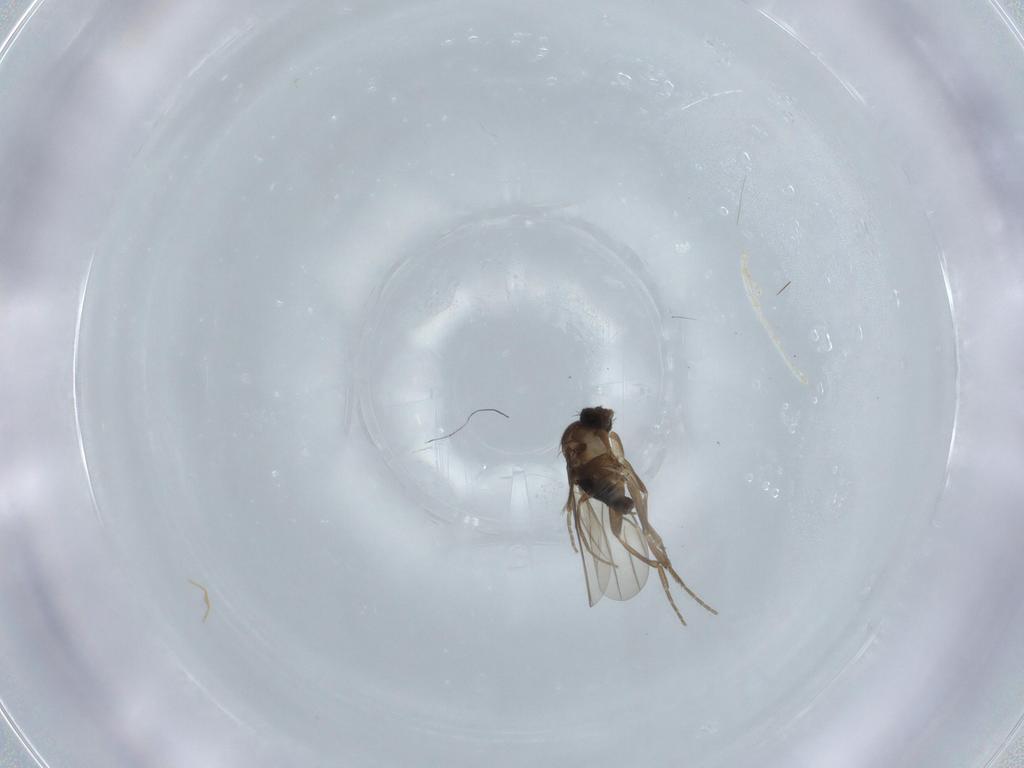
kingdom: Animalia
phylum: Arthropoda
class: Insecta
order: Diptera
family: Phoridae
